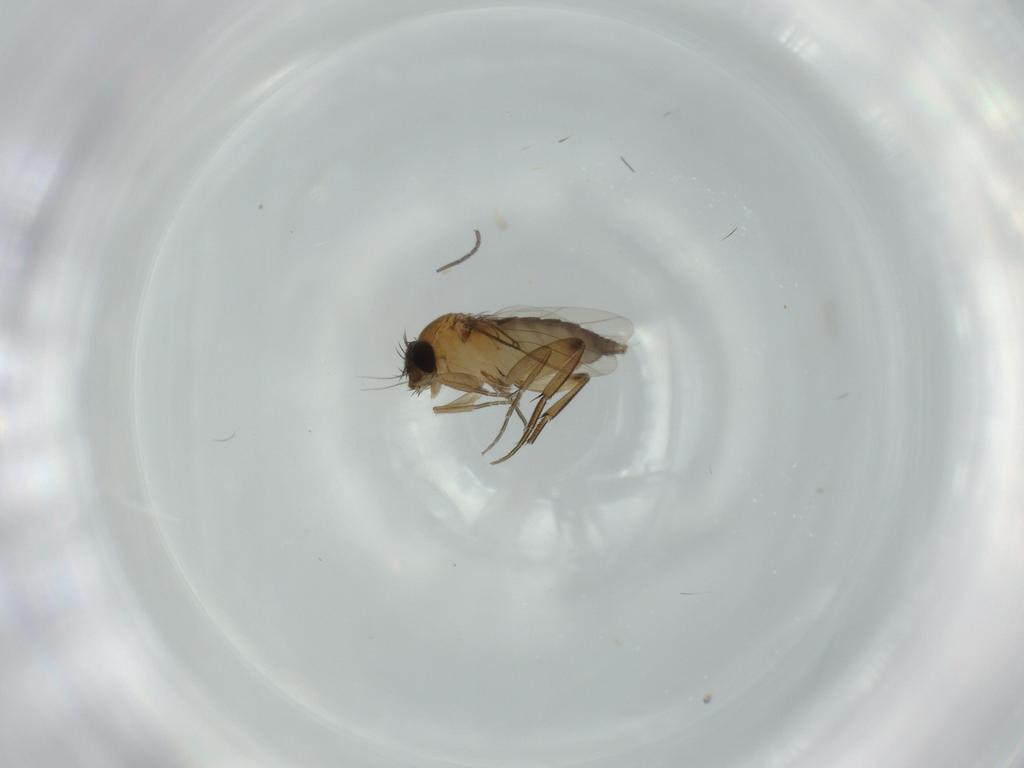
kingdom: Animalia
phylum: Arthropoda
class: Insecta
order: Diptera
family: Phoridae
